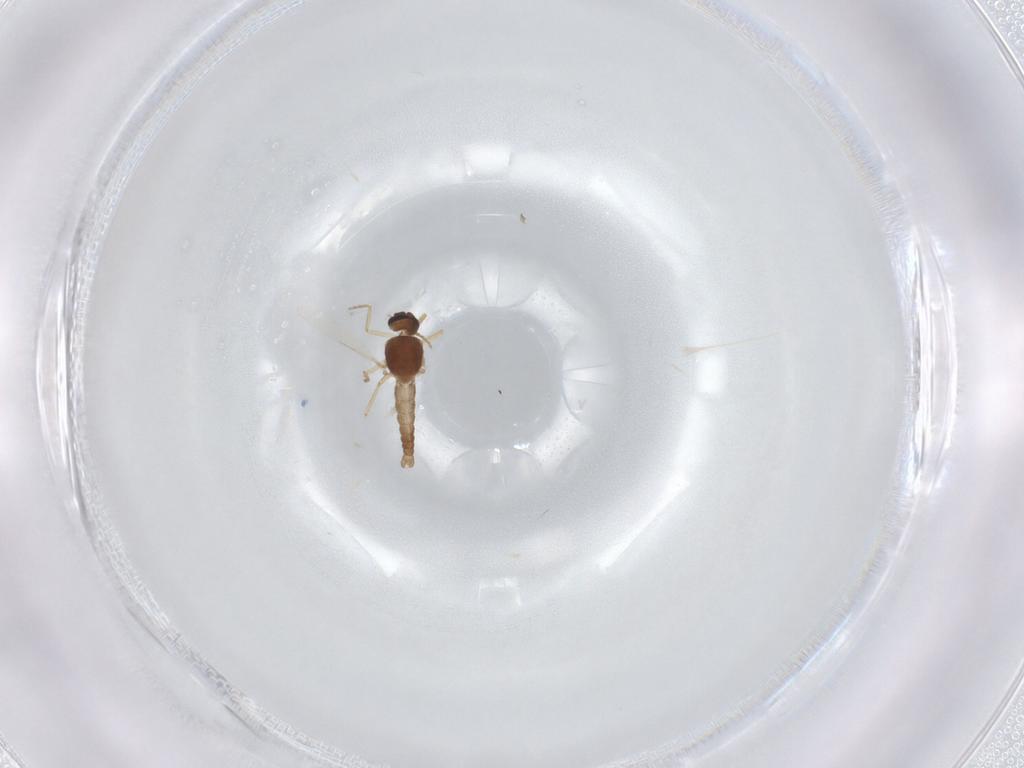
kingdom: Animalia
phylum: Arthropoda
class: Insecta
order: Diptera
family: Ceratopogonidae
